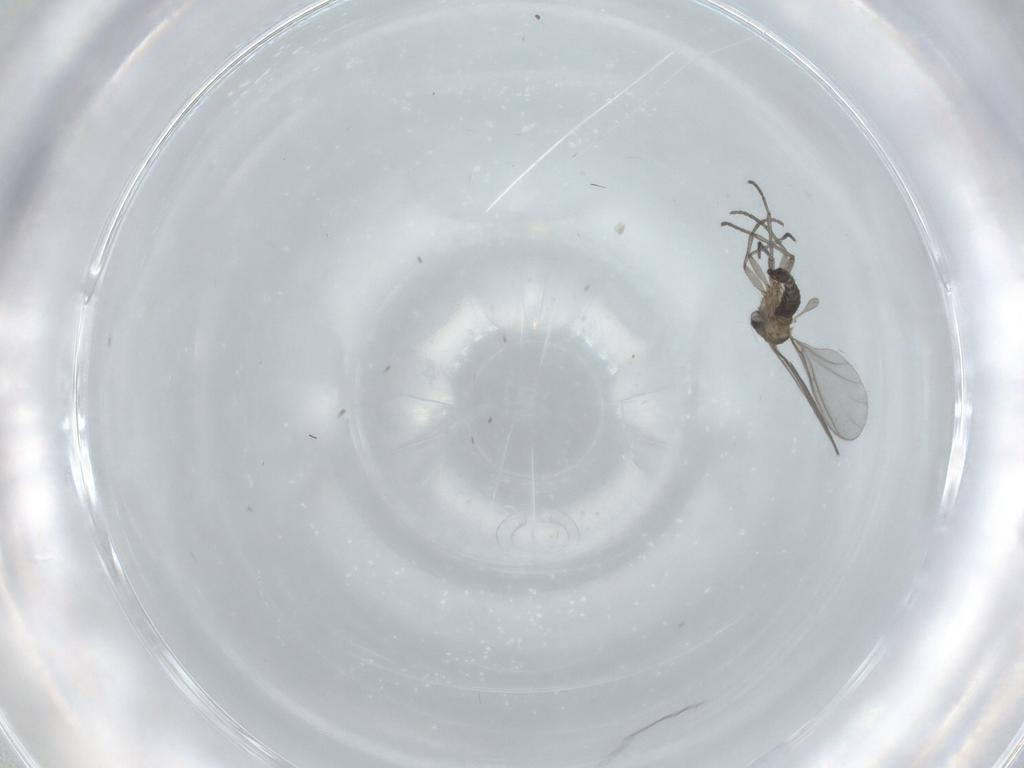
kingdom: Animalia
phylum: Arthropoda
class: Insecta
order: Diptera
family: Sciaridae
